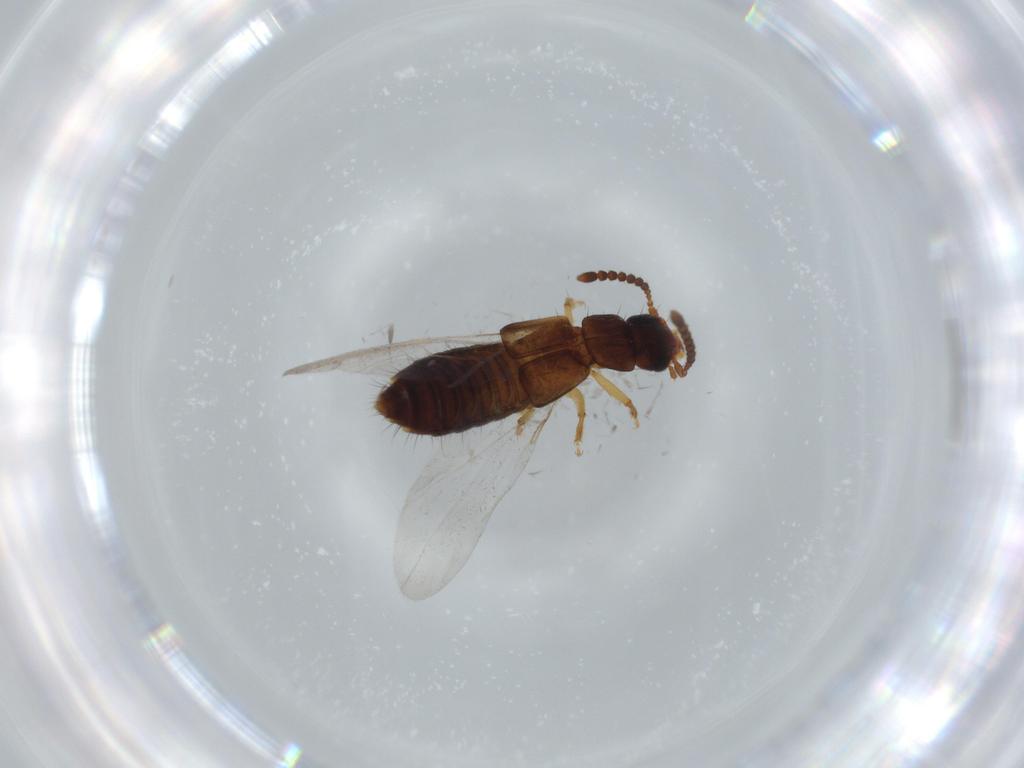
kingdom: Animalia
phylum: Arthropoda
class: Insecta
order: Coleoptera
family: Staphylinidae
